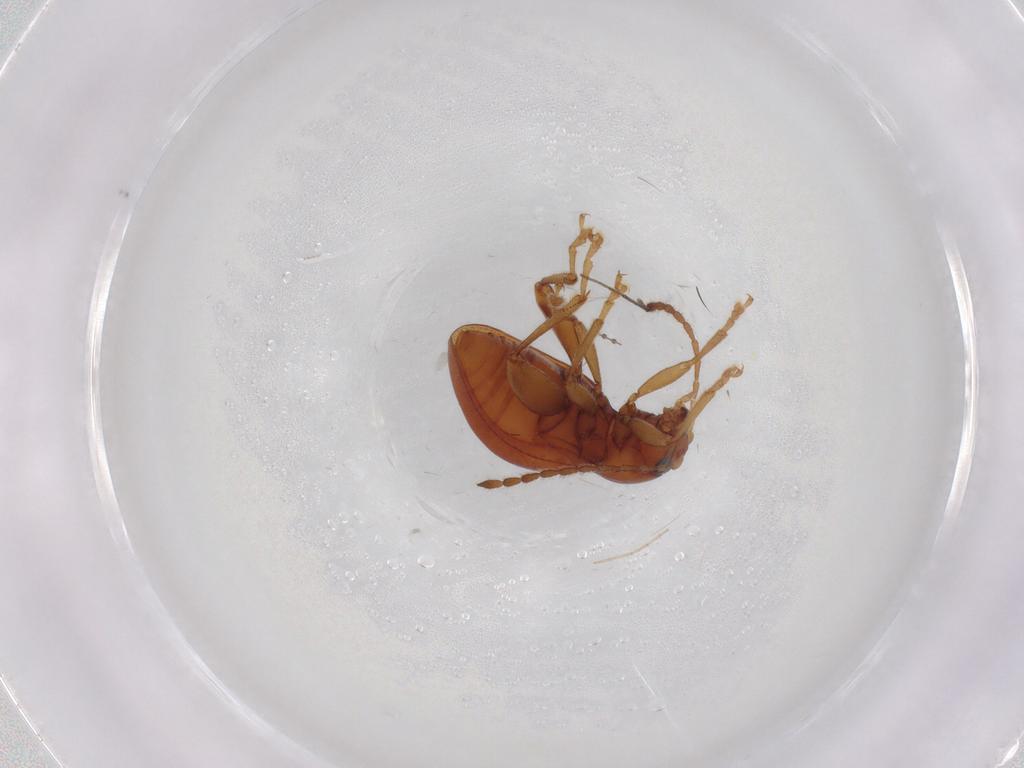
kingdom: Animalia
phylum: Arthropoda
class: Insecta
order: Coleoptera
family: Chrysomelidae
